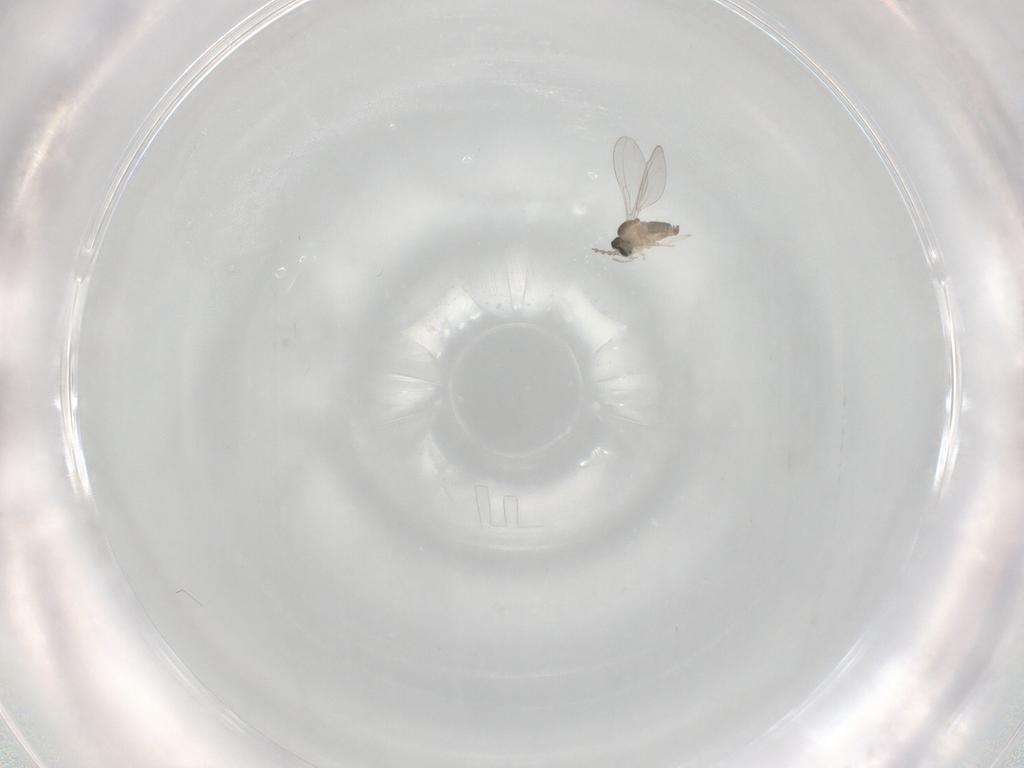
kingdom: Animalia
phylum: Arthropoda
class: Insecta
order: Diptera
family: Cecidomyiidae
